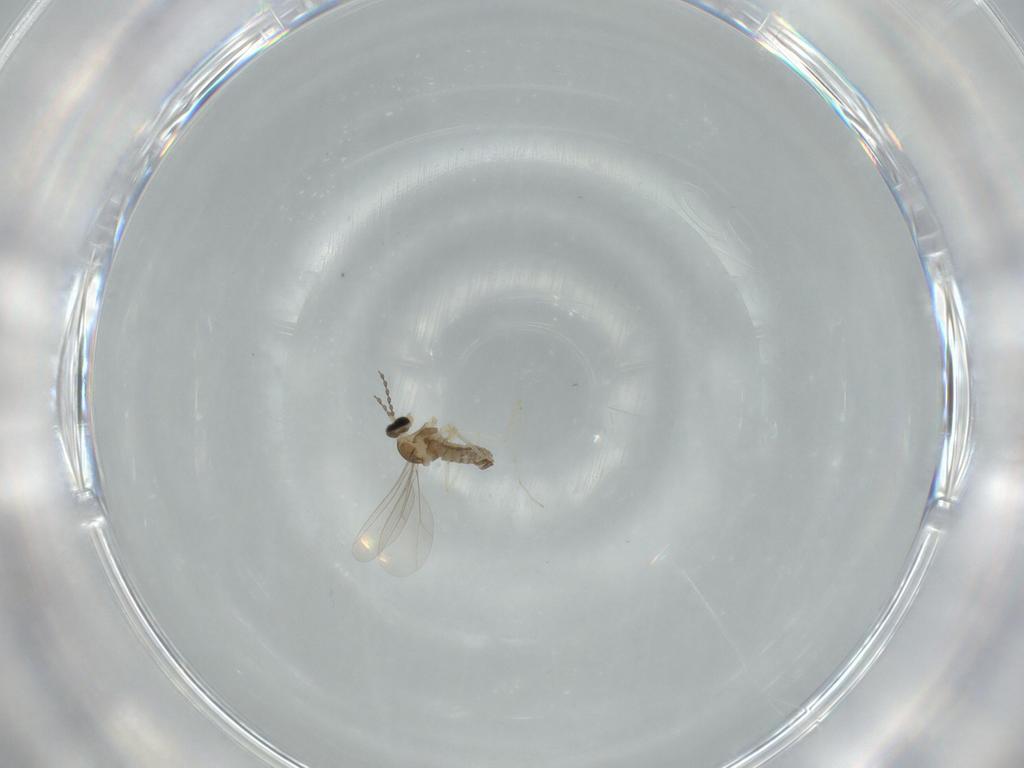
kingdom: Animalia
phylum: Arthropoda
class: Insecta
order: Diptera
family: Cecidomyiidae
